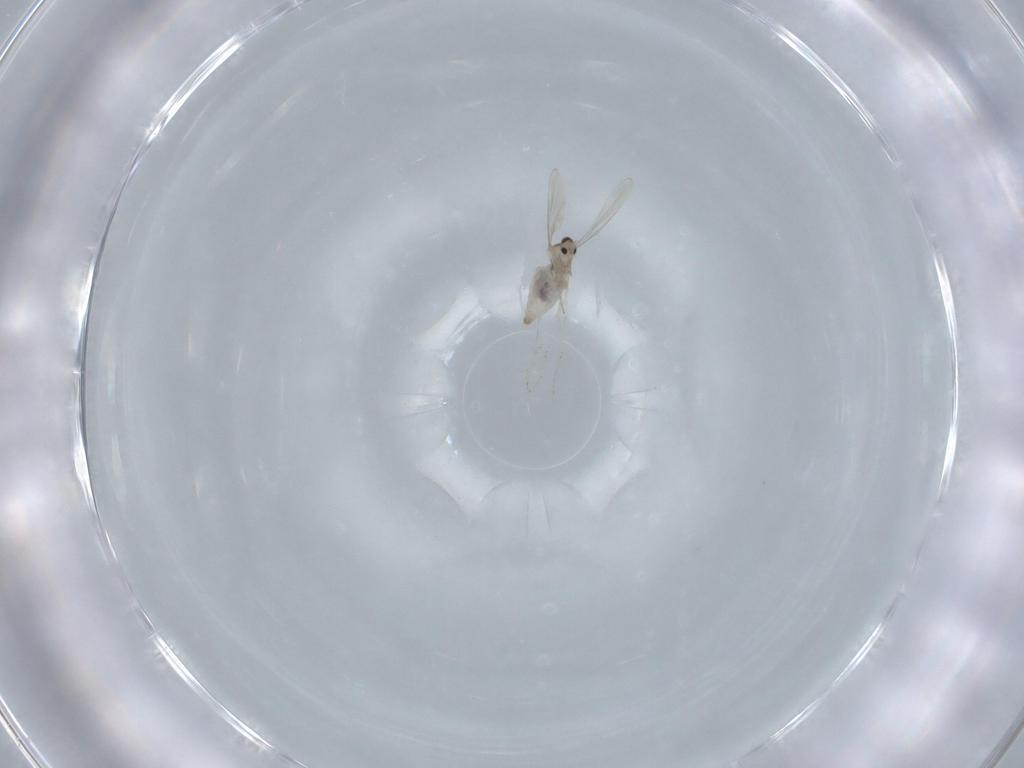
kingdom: Animalia
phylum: Arthropoda
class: Insecta
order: Diptera
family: Cecidomyiidae
